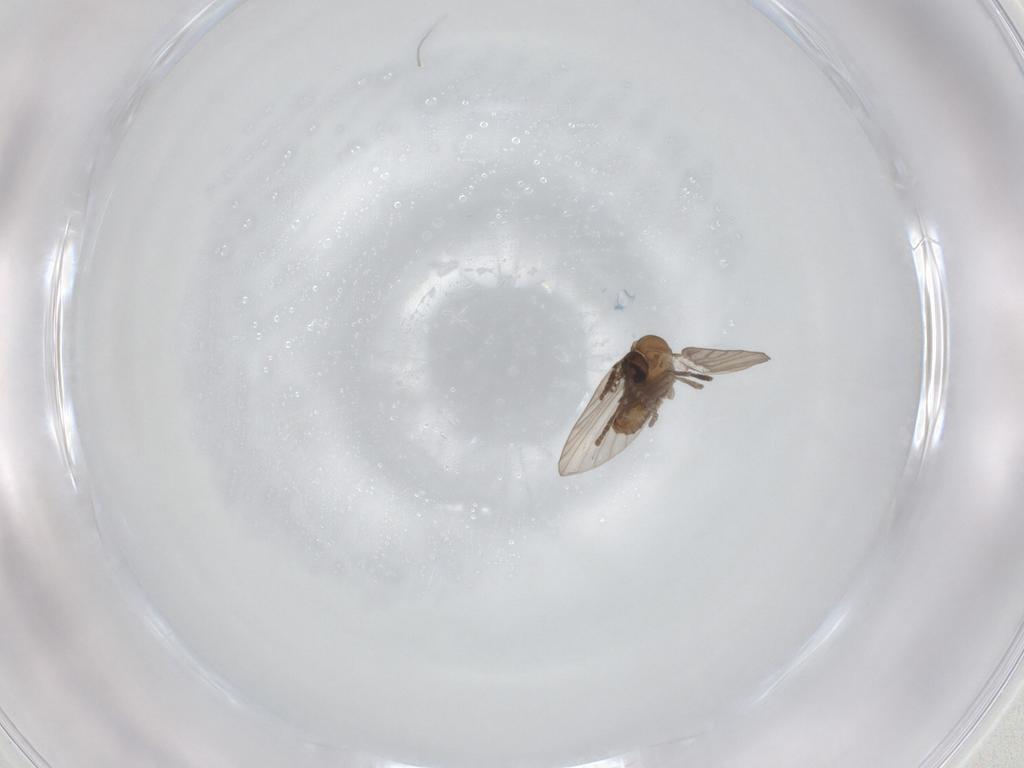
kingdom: Animalia
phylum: Arthropoda
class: Insecta
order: Diptera
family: Psychodidae
